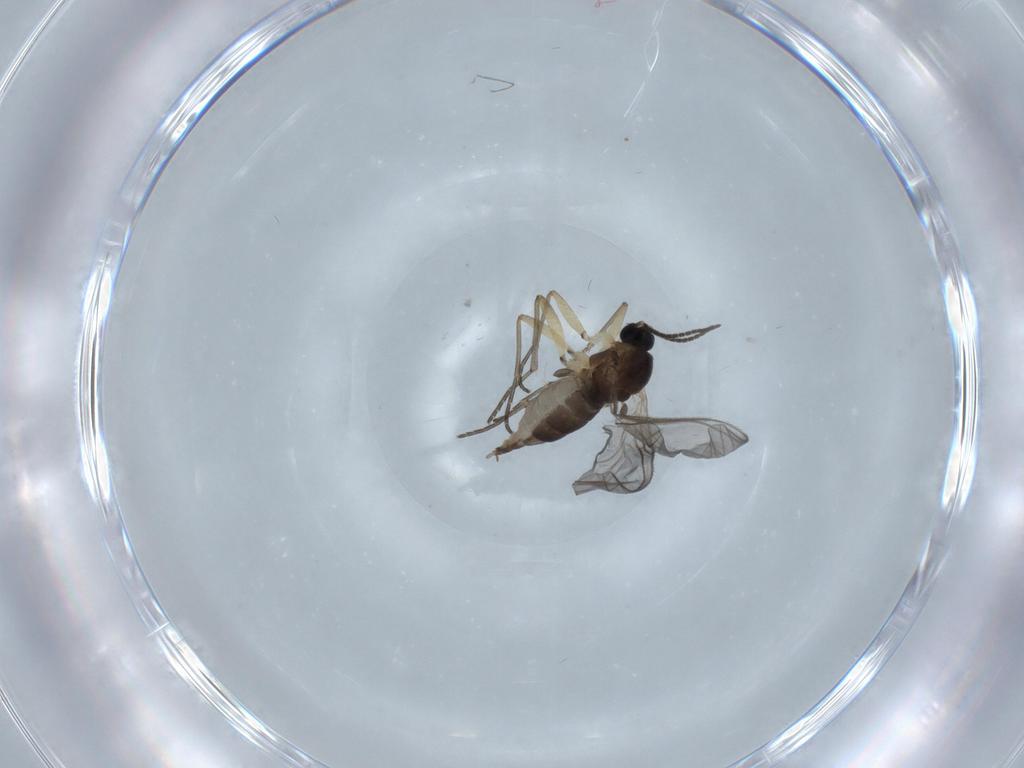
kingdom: Animalia
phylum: Arthropoda
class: Insecta
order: Diptera
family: Sciaridae
